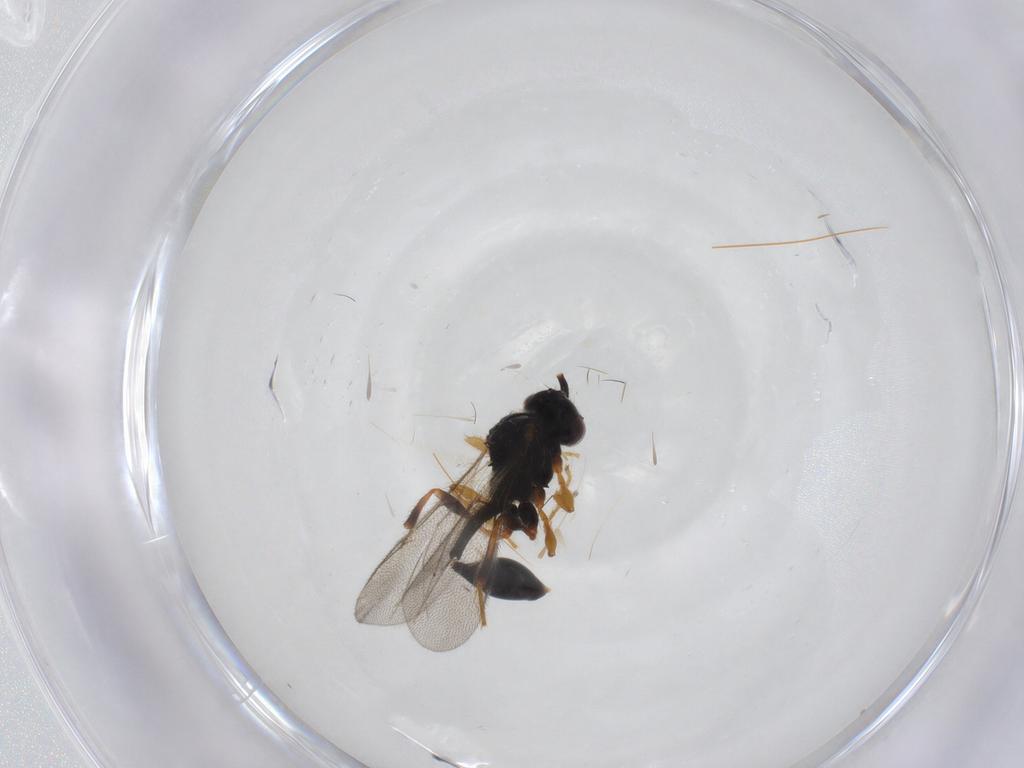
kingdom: Animalia
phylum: Arthropoda
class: Insecta
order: Hymenoptera
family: Diapriidae
